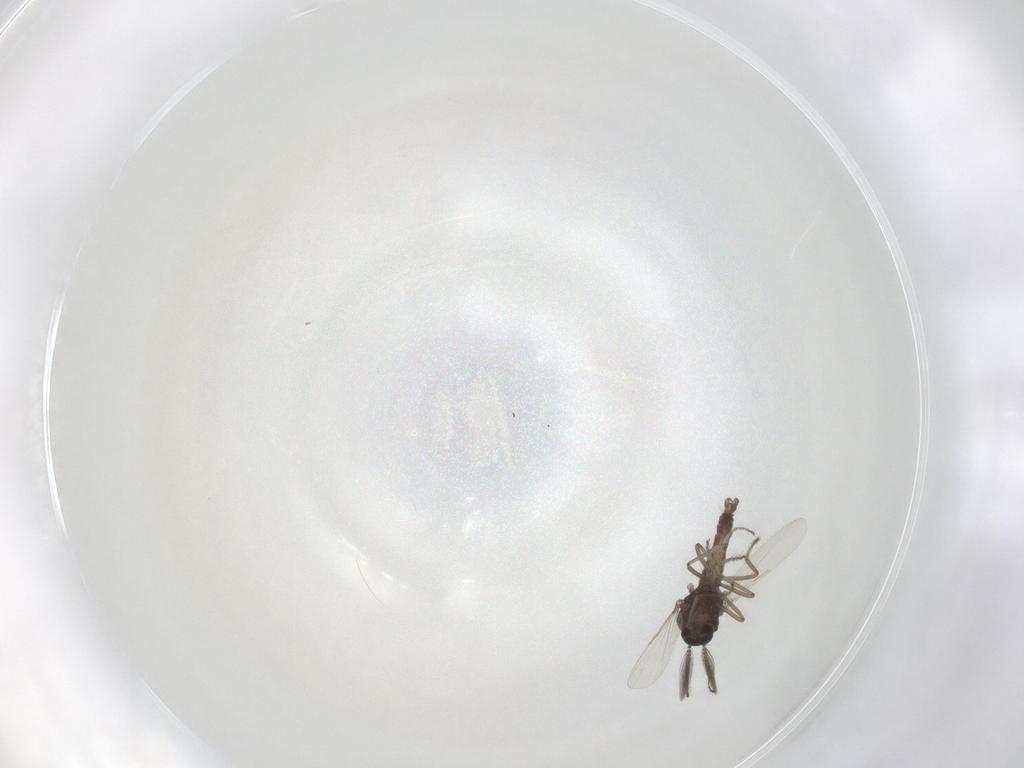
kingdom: Animalia
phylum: Arthropoda
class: Insecta
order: Diptera
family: Ceratopogonidae
